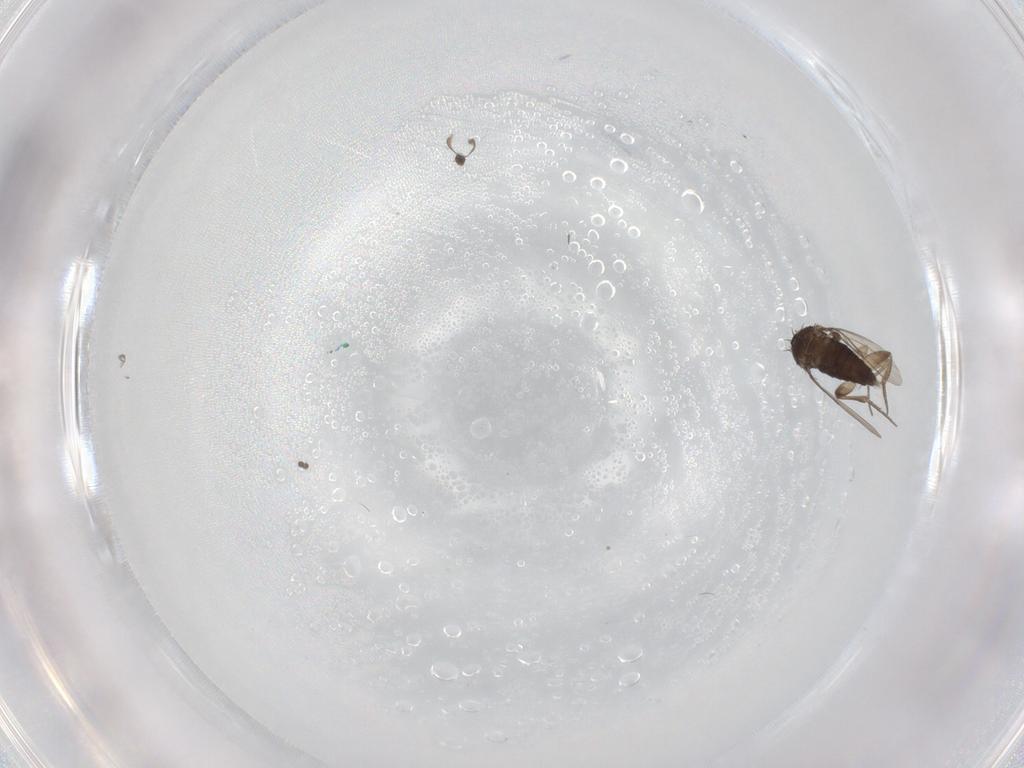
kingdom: Animalia
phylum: Arthropoda
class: Insecta
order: Diptera
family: Phoridae
